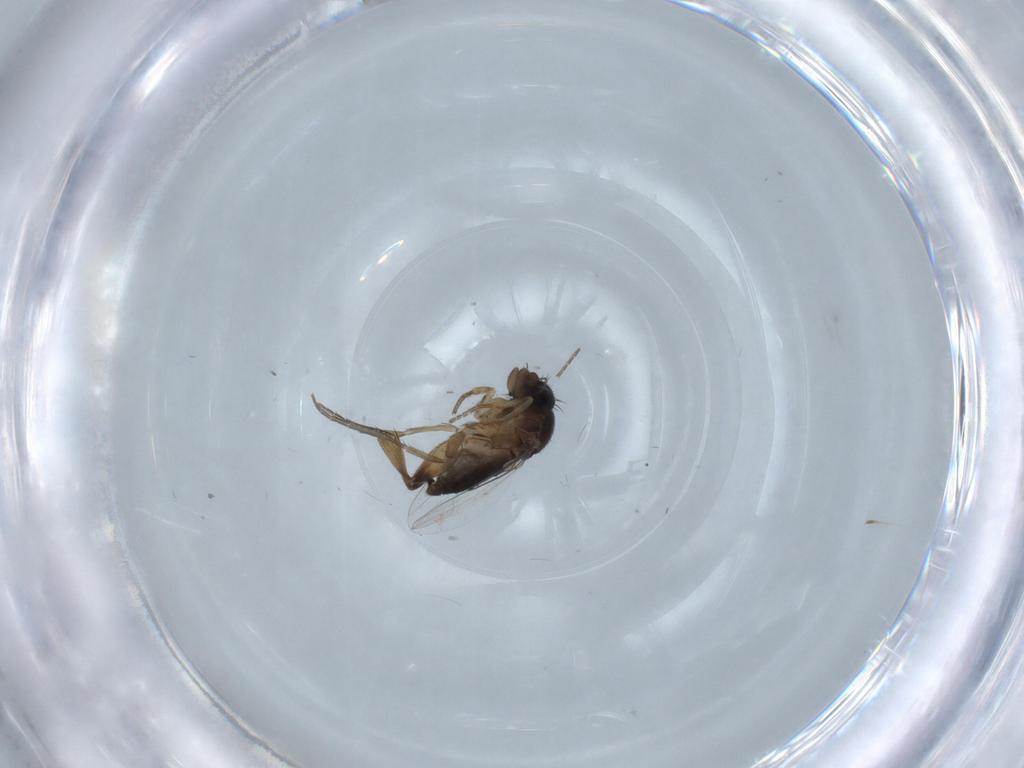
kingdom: Animalia
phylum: Arthropoda
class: Insecta
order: Diptera
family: Phoridae
